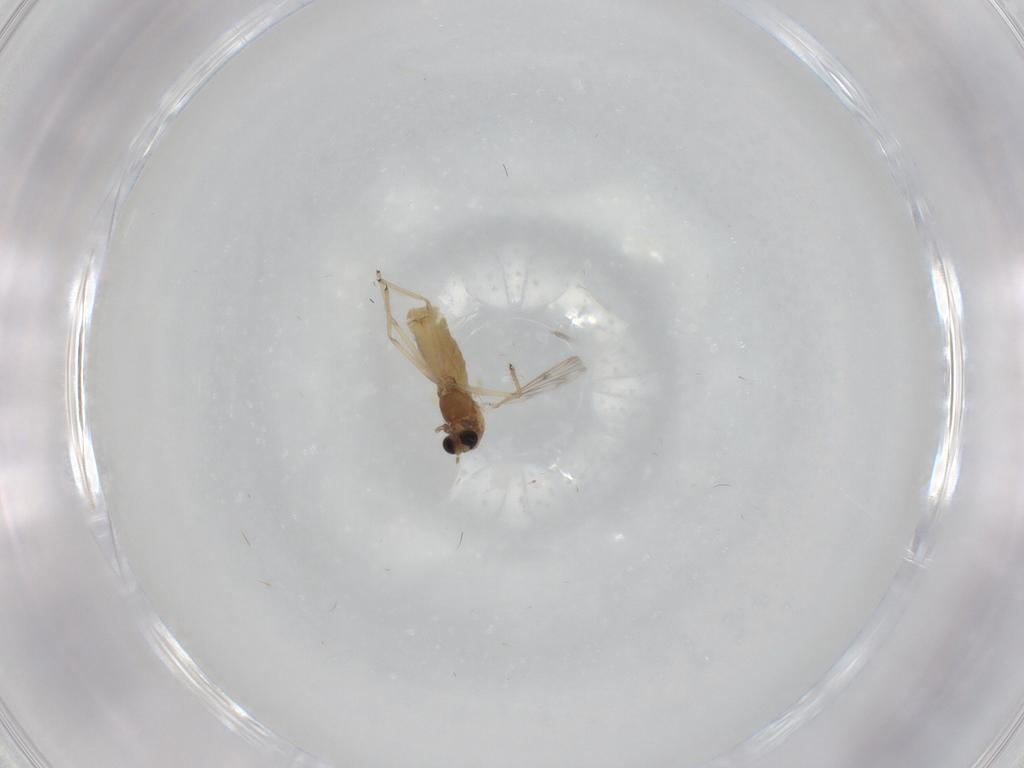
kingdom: Animalia
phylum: Arthropoda
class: Insecta
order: Diptera
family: Chironomidae
